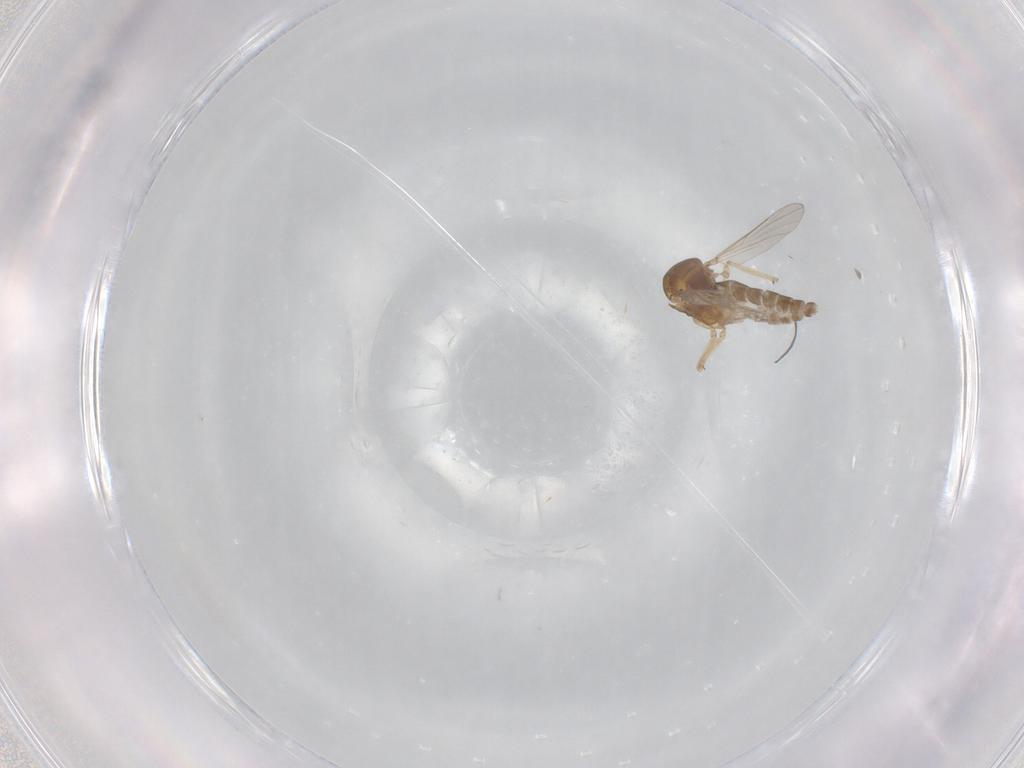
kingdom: Animalia
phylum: Arthropoda
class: Insecta
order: Diptera
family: Ceratopogonidae
